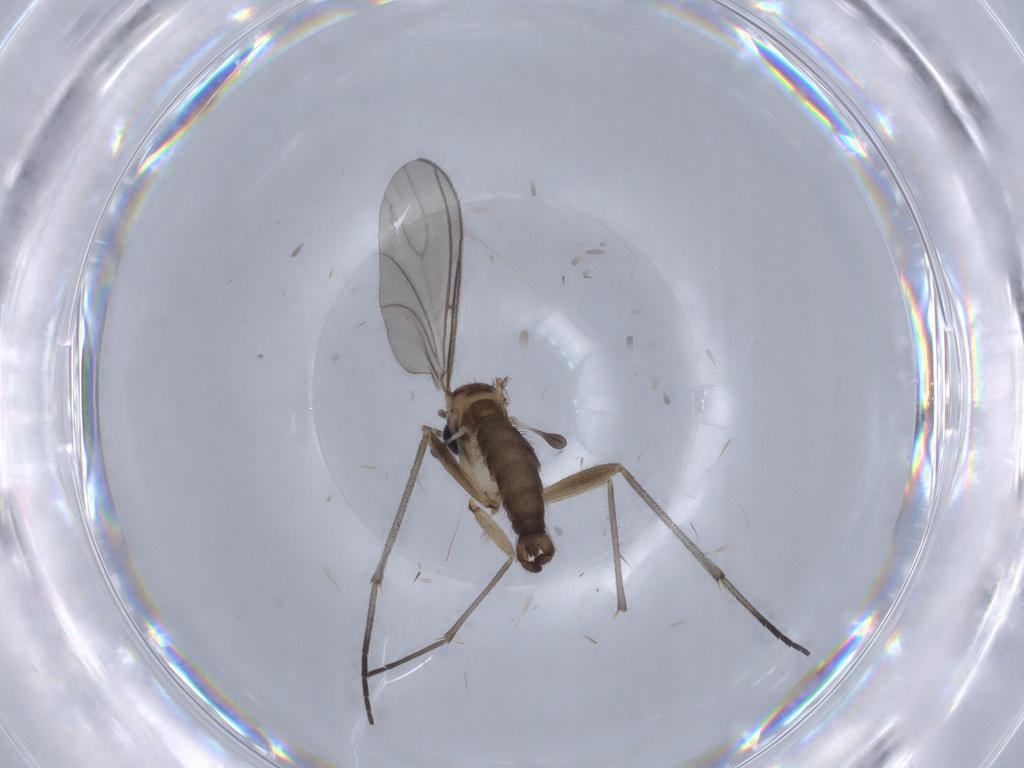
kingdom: Animalia
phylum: Arthropoda
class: Insecta
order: Diptera
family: Sciaridae
